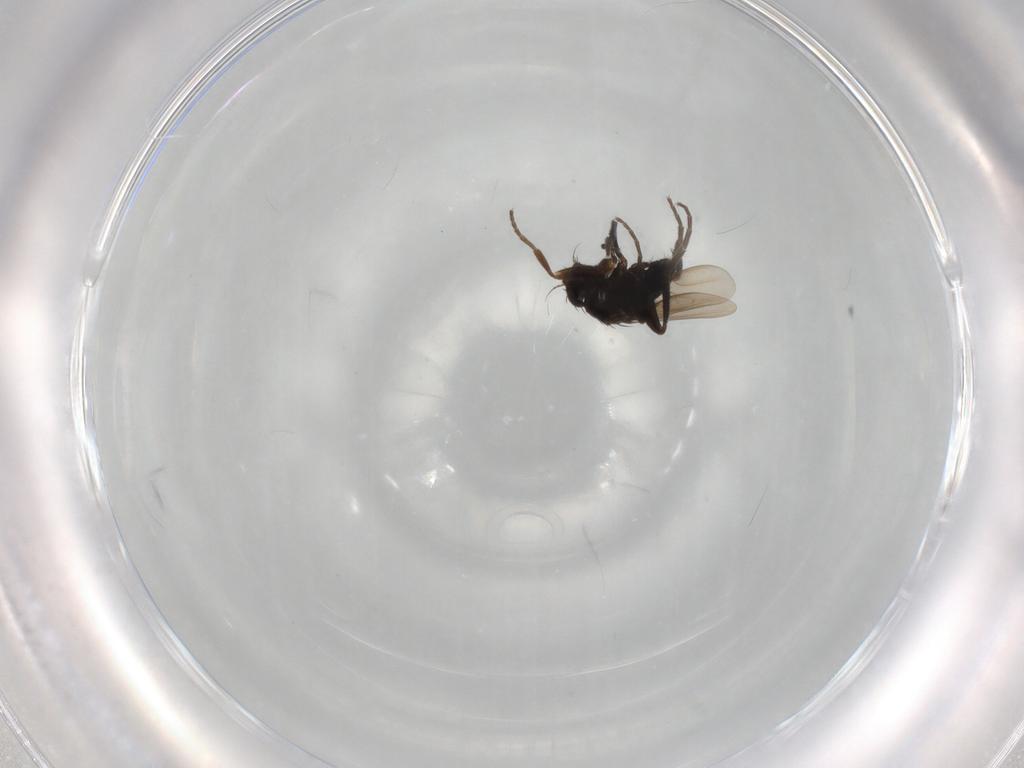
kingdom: Animalia
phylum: Arthropoda
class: Insecta
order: Diptera
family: Phoridae
